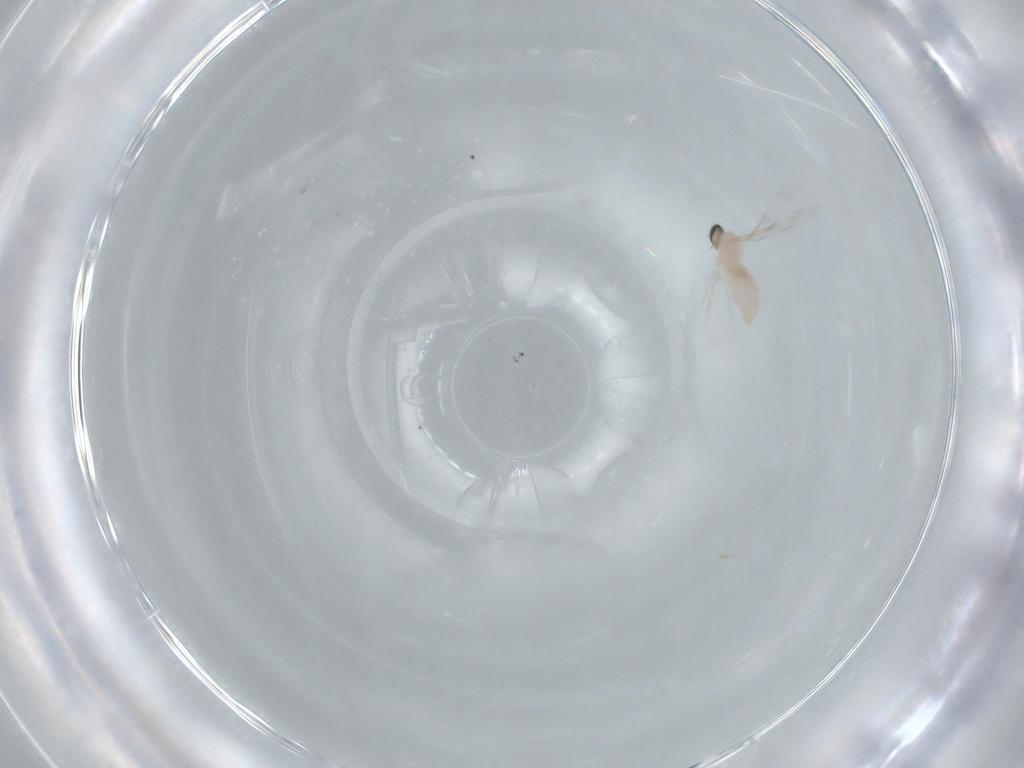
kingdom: Animalia
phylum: Arthropoda
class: Insecta
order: Diptera
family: Cecidomyiidae
